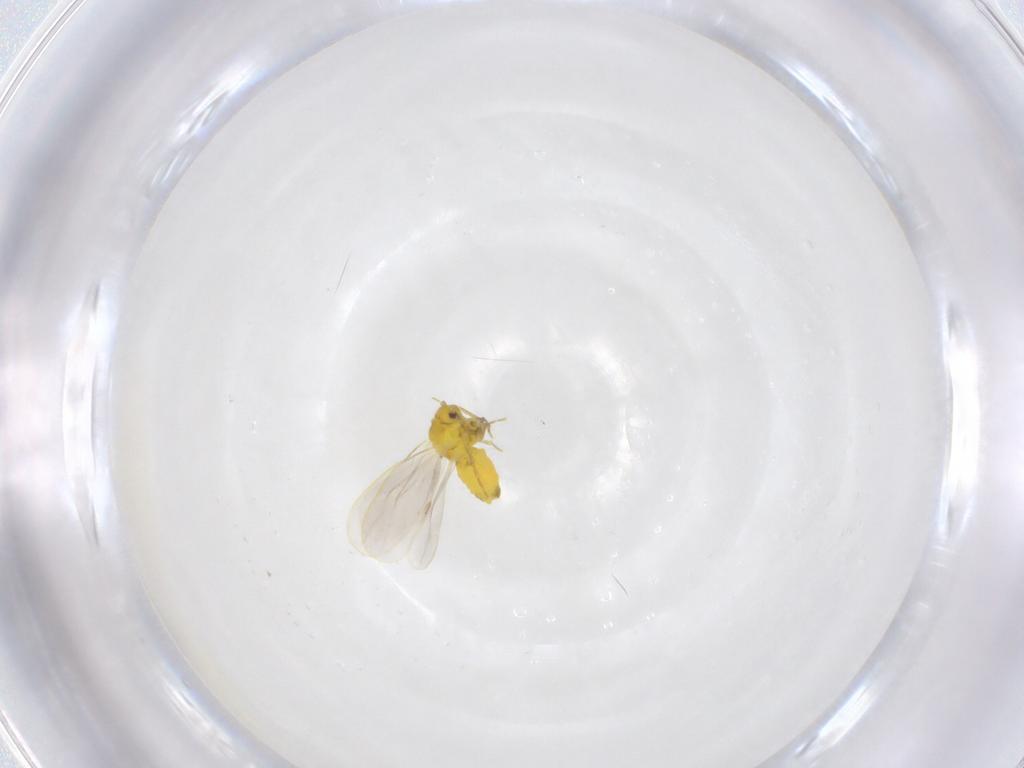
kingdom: Animalia
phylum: Arthropoda
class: Insecta
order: Hemiptera
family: Aleyrodidae
